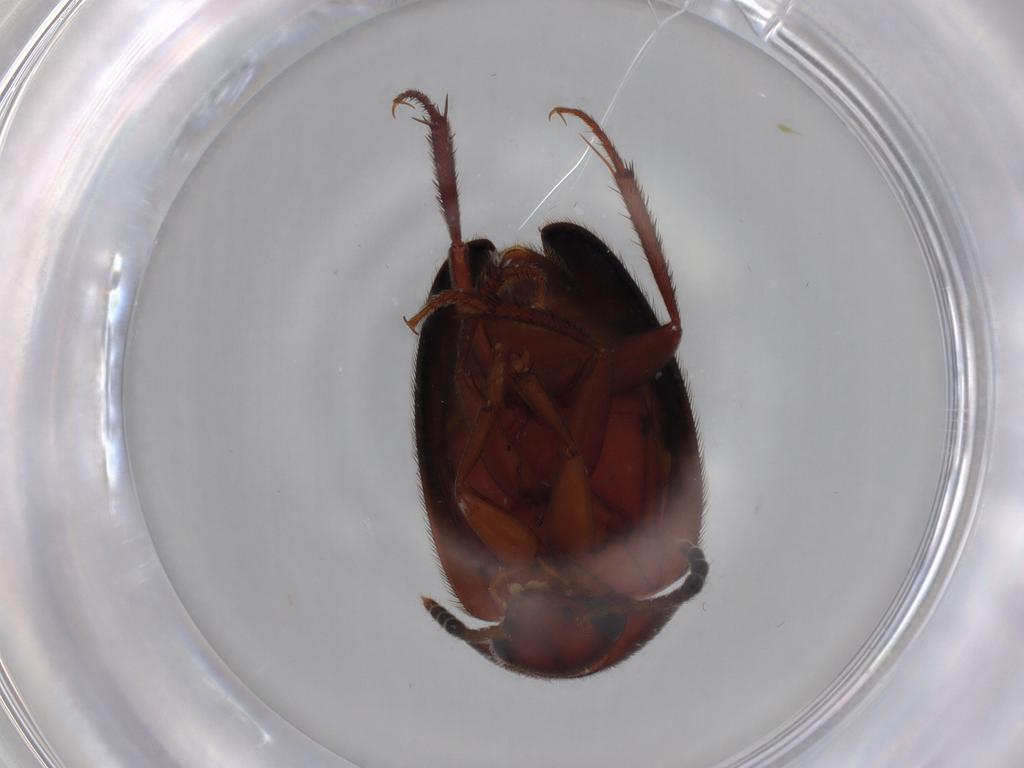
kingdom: Animalia
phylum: Arthropoda
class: Insecta
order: Coleoptera
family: Leiodidae
